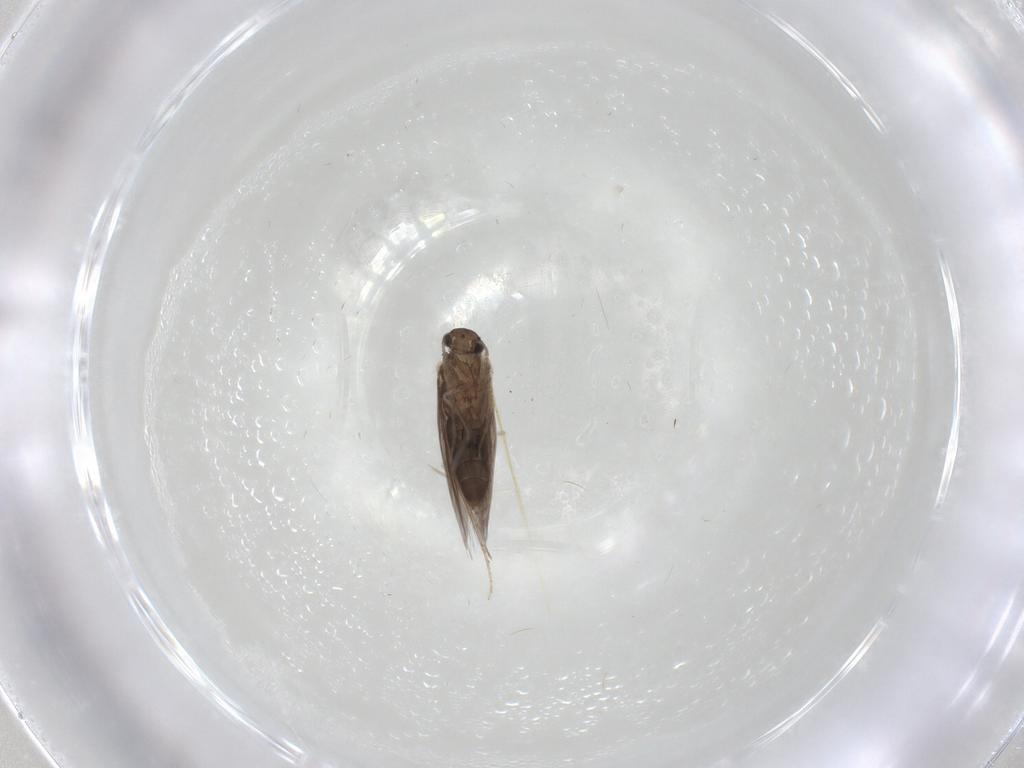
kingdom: Animalia
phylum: Arthropoda
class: Insecta
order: Trichoptera
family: Hydroptilidae
